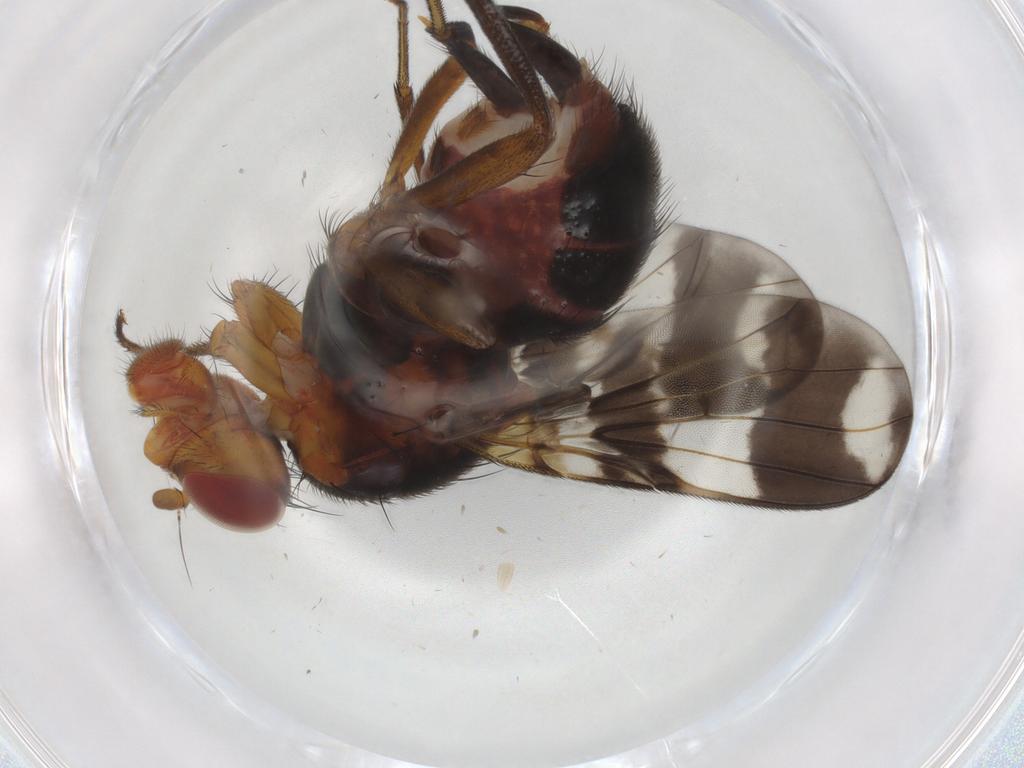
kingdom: Animalia
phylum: Arthropoda
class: Insecta
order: Diptera
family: Richardiidae
